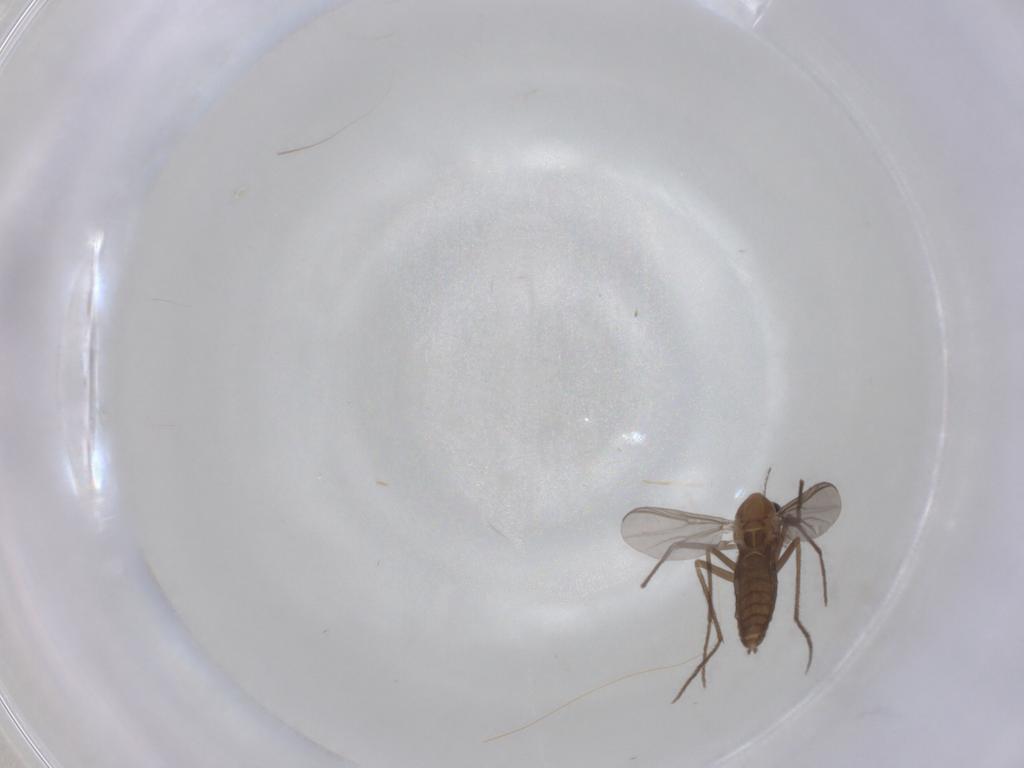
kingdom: Animalia
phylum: Arthropoda
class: Insecta
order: Diptera
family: Chironomidae
